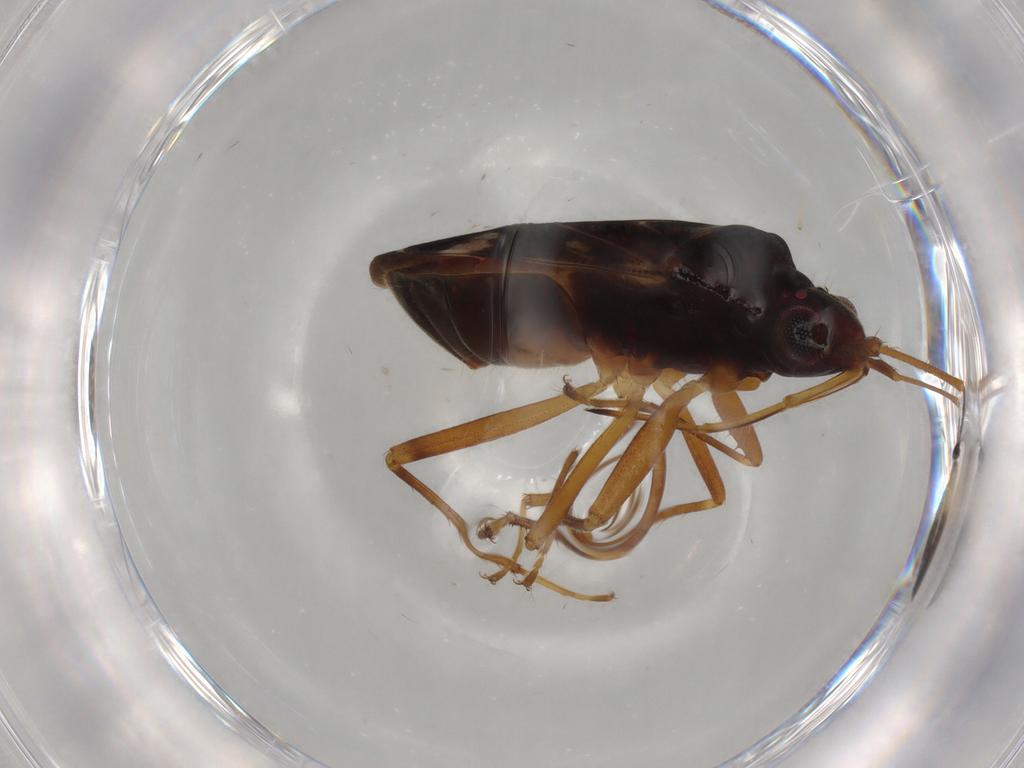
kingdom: Animalia
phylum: Arthropoda
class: Insecta
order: Hemiptera
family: Rhyparochromidae
